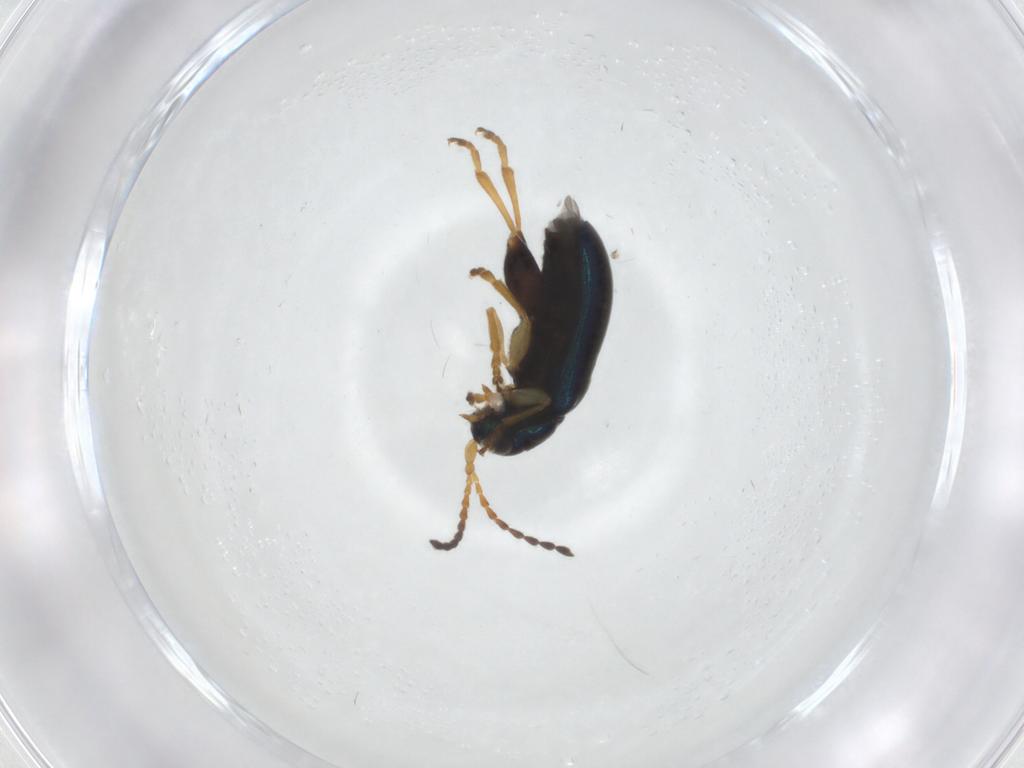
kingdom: Animalia
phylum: Arthropoda
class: Insecta
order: Coleoptera
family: Chrysomelidae
